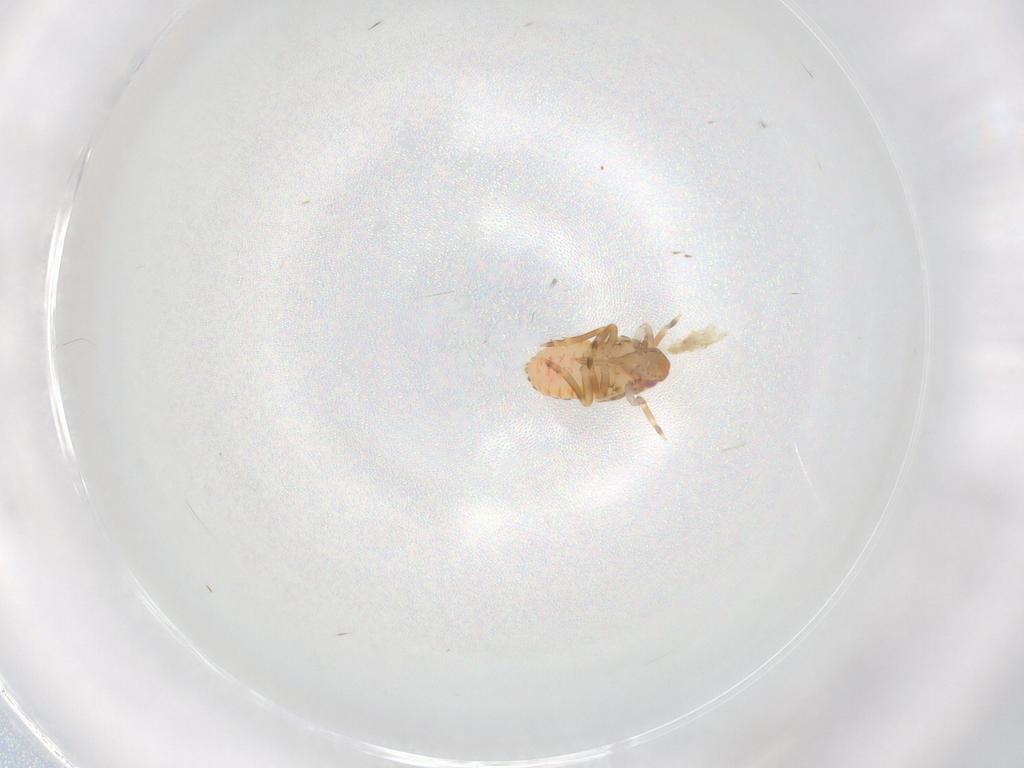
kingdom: Animalia
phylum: Arthropoda
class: Insecta
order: Hemiptera
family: Flatidae
